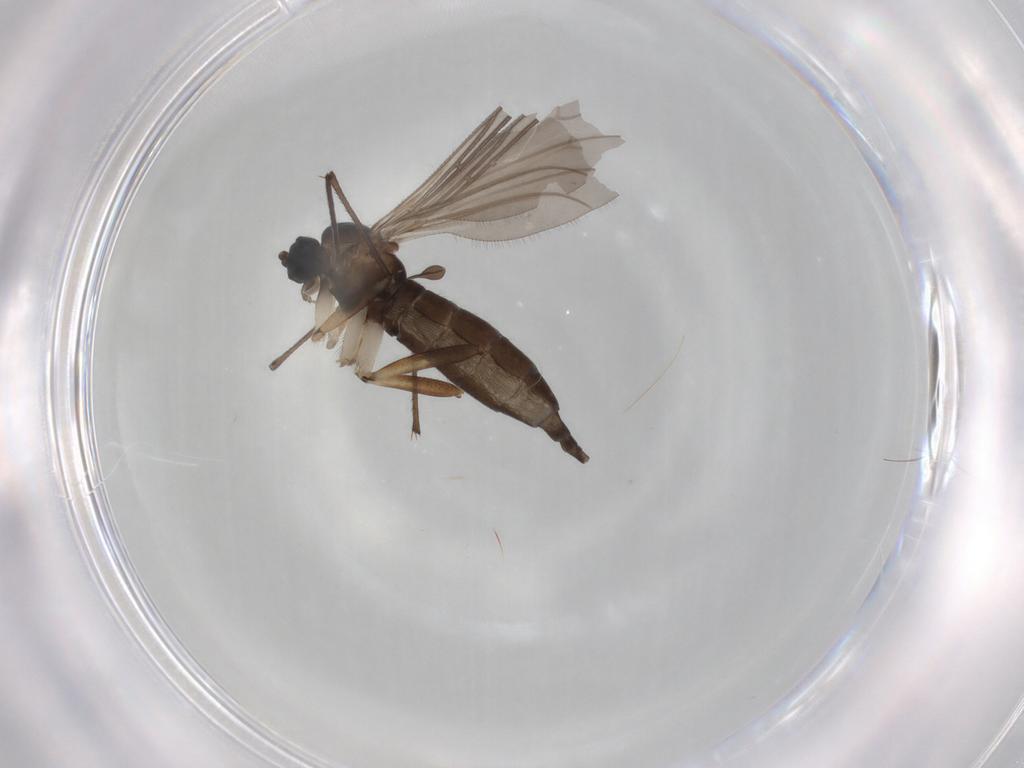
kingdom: Animalia
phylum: Arthropoda
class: Insecta
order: Diptera
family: Sciaridae
